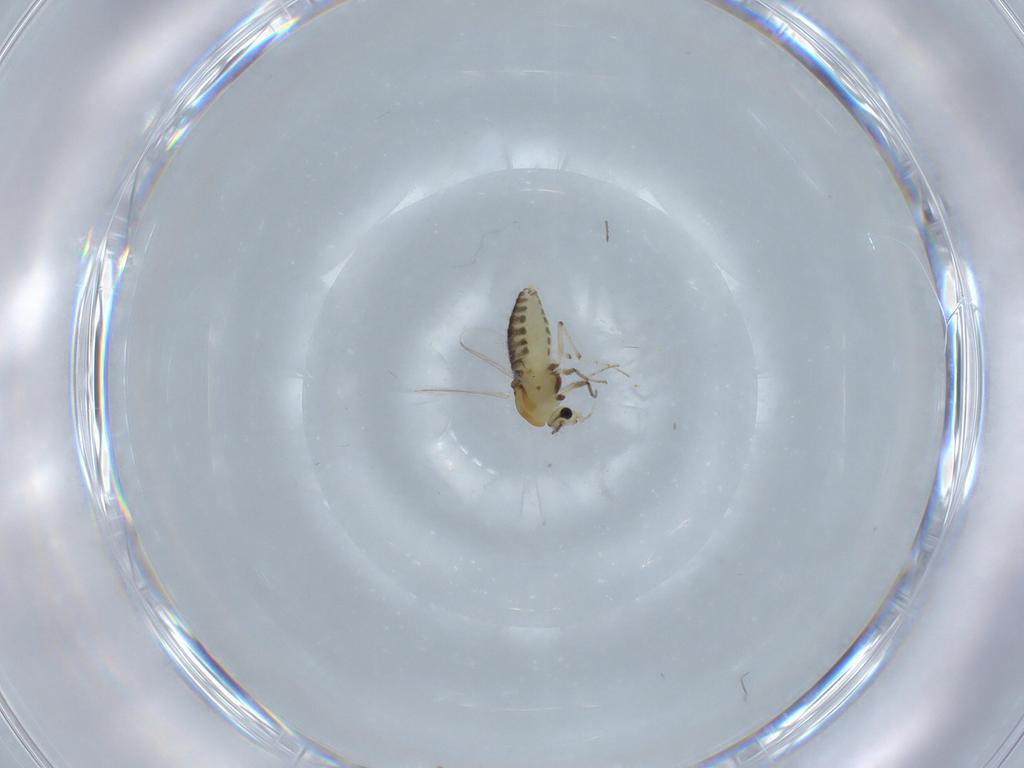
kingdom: Animalia
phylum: Arthropoda
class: Insecta
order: Diptera
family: Chironomidae
